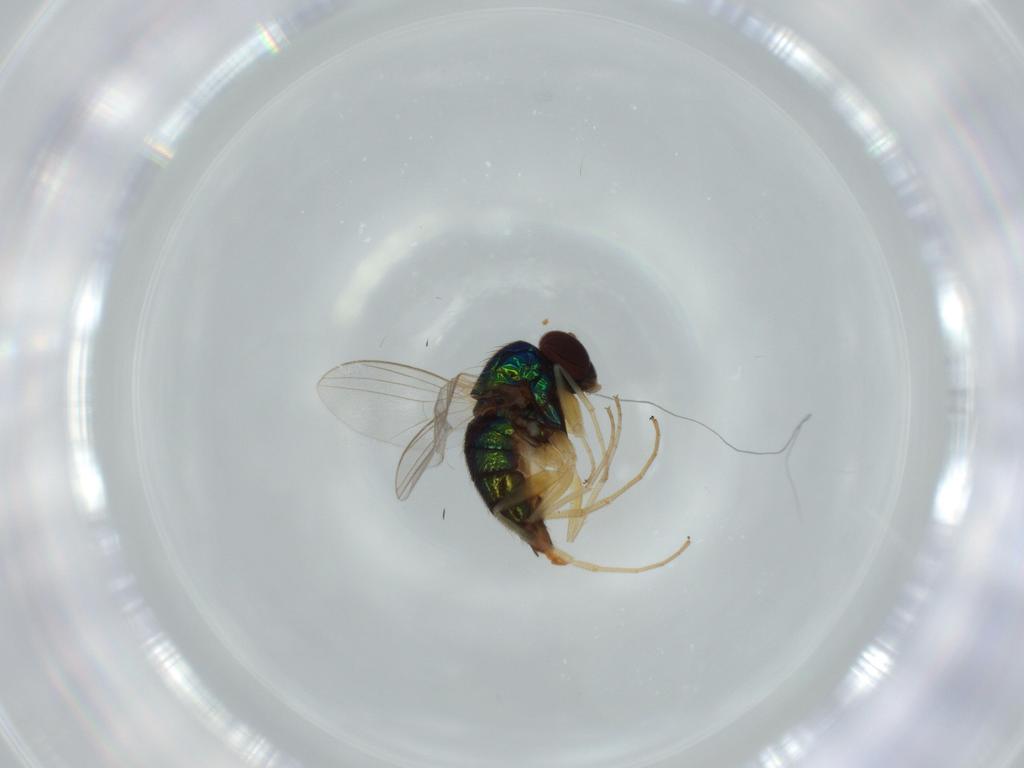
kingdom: Animalia
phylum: Arthropoda
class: Insecta
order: Diptera
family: Dolichopodidae
